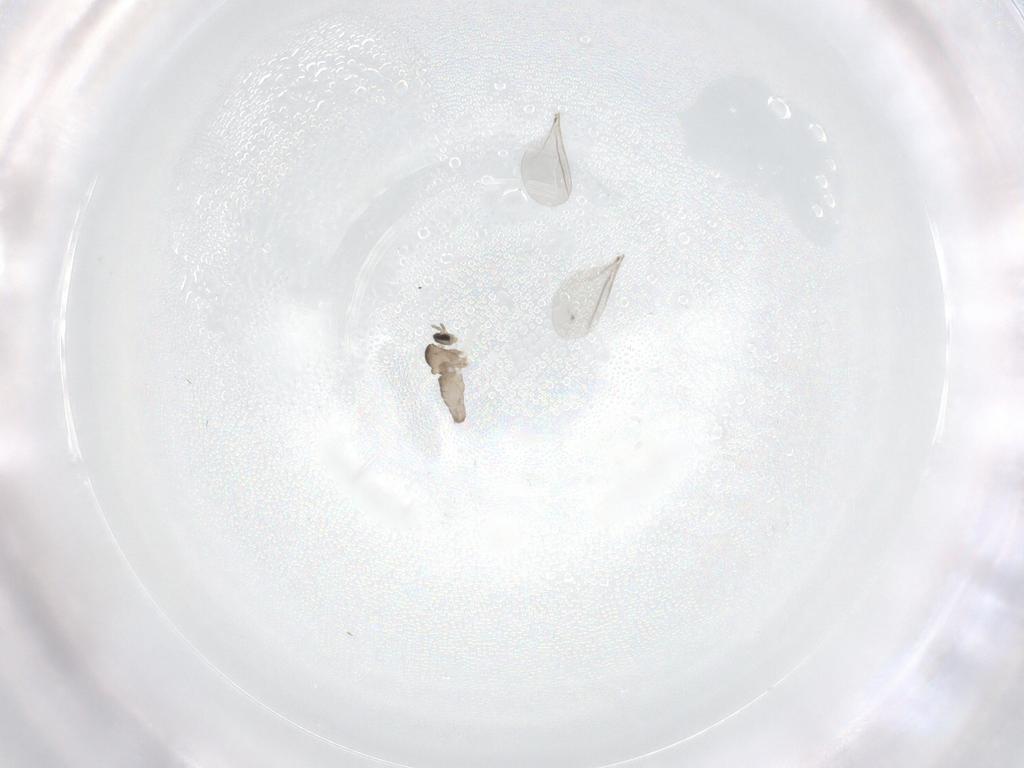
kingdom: Animalia
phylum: Arthropoda
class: Insecta
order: Diptera
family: Cecidomyiidae
